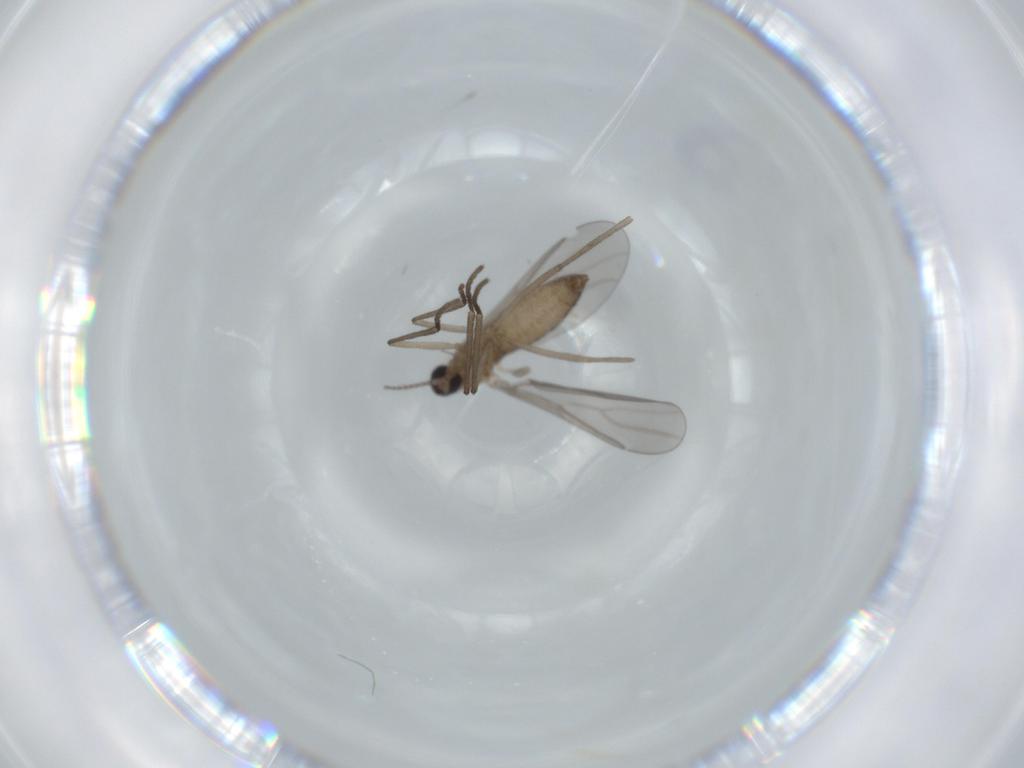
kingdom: Animalia
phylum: Arthropoda
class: Insecta
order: Diptera
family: Cecidomyiidae
